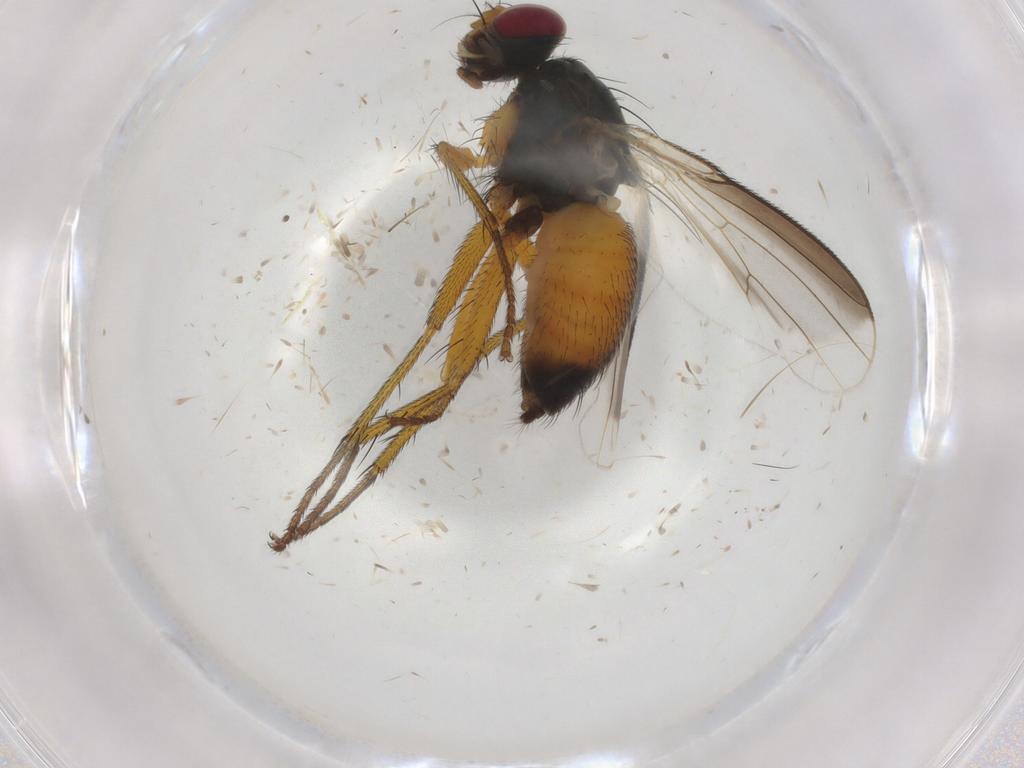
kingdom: Animalia
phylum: Arthropoda
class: Insecta
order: Diptera
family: Muscidae
